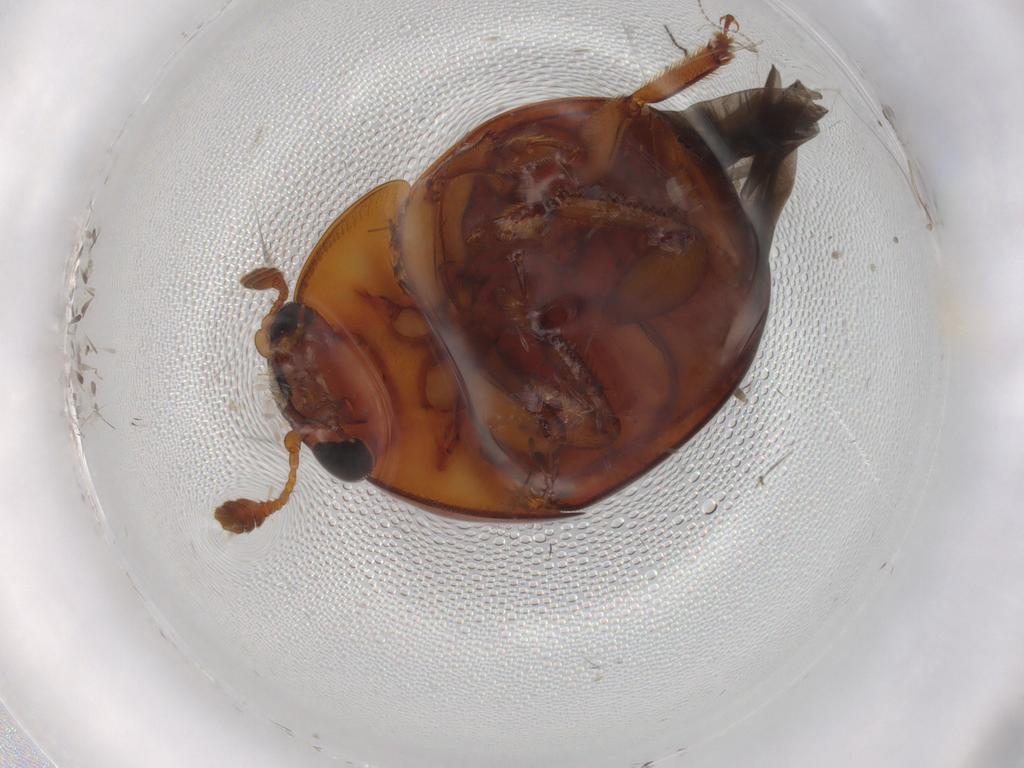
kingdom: Animalia
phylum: Arthropoda
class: Insecta
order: Coleoptera
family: Nitidulidae
